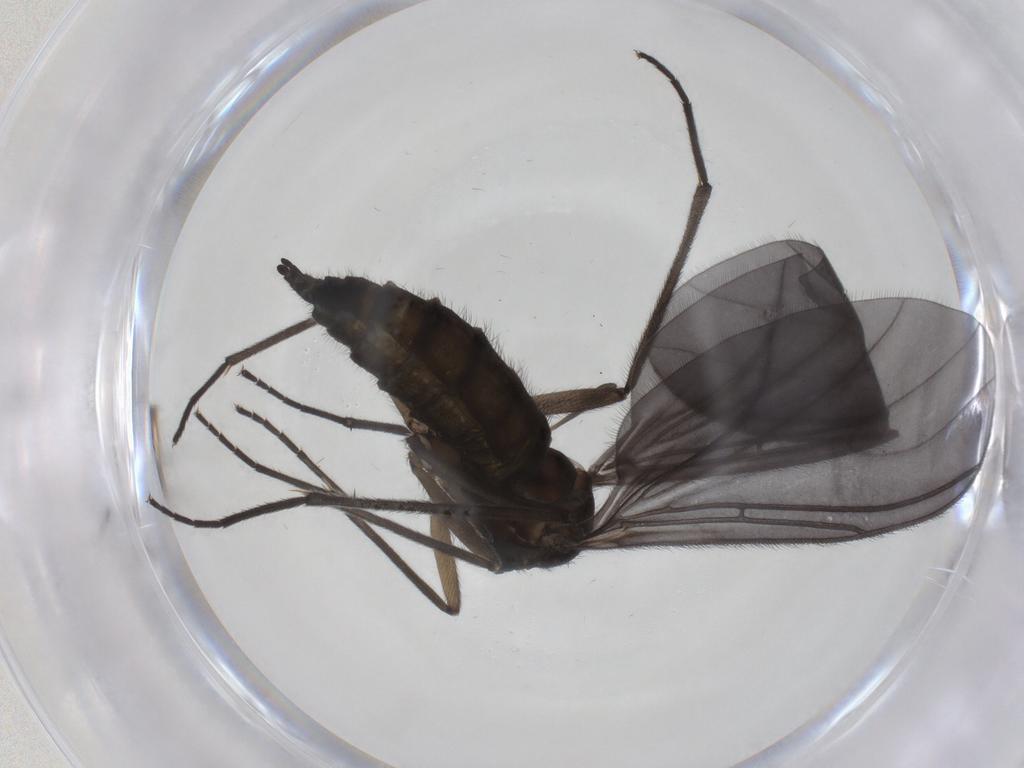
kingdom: Animalia
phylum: Arthropoda
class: Insecta
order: Diptera
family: Sciaridae
